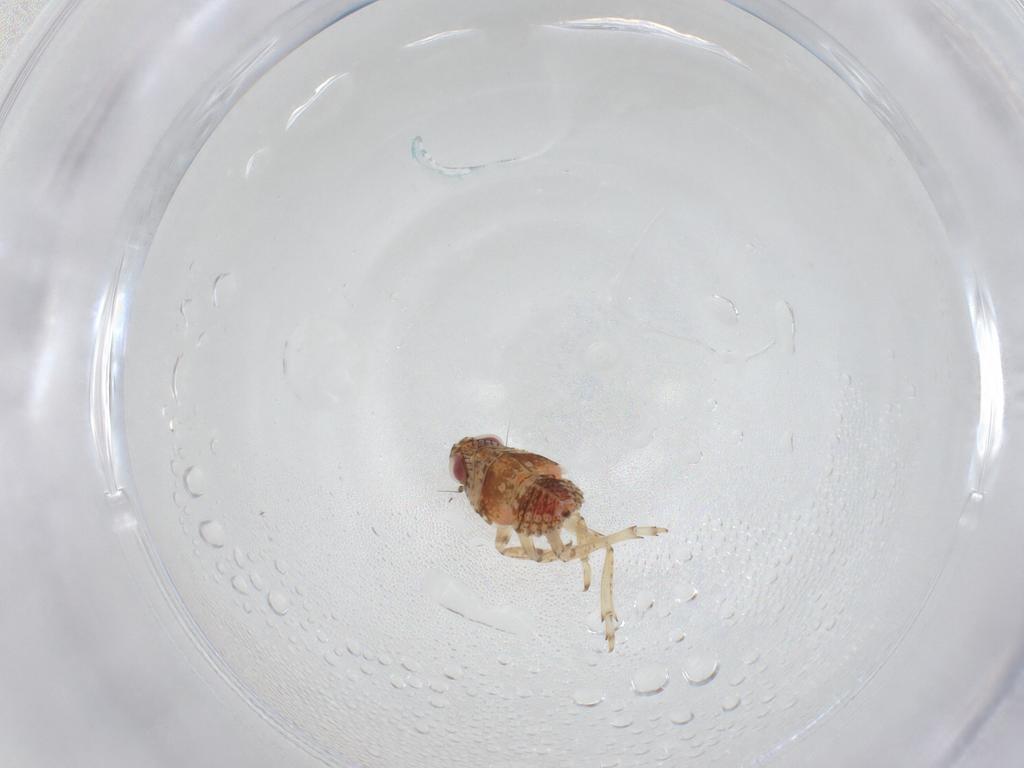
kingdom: Animalia
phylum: Arthropoda
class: Insecta
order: Hemiptera
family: Issidae
